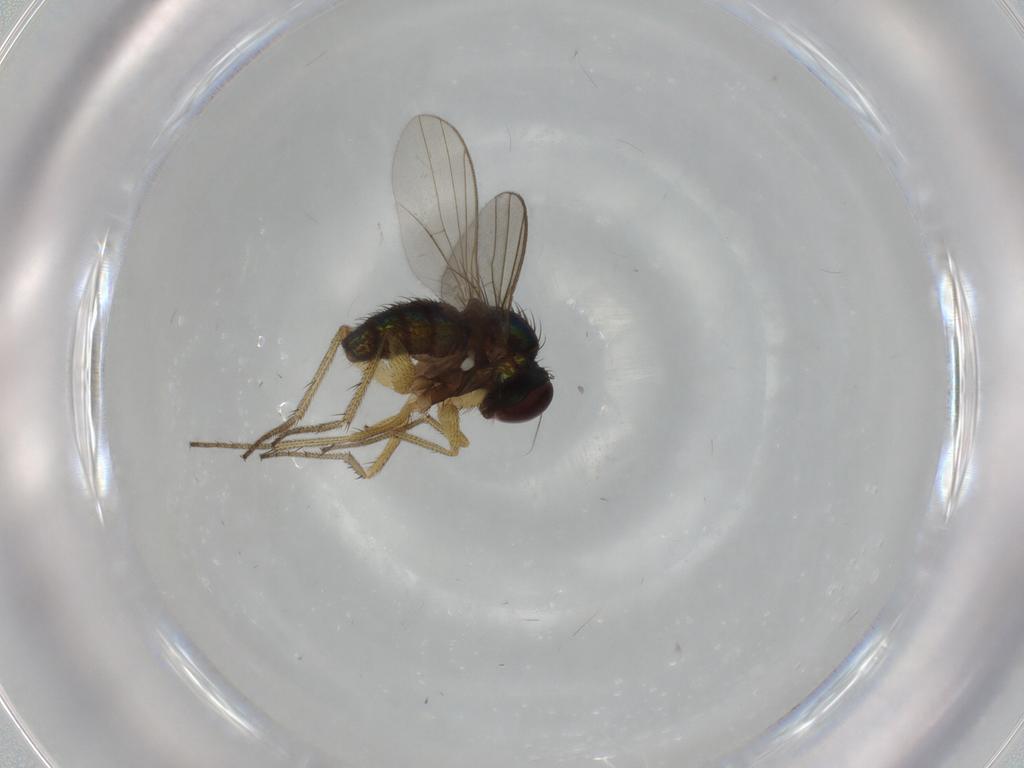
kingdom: Animalia
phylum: Arthropoda
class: Insecta
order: Diptera
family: Dolichopodidae
